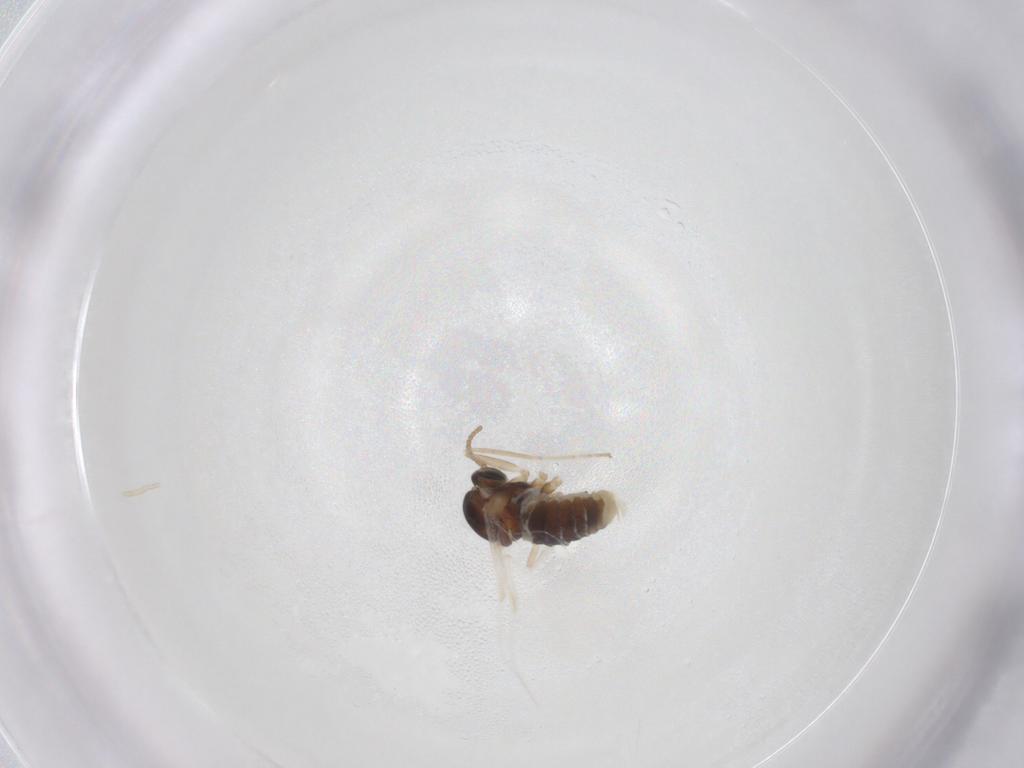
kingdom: Animalia
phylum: Arthropoda
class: Insecta
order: Diptera
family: Cecidomyiidae
